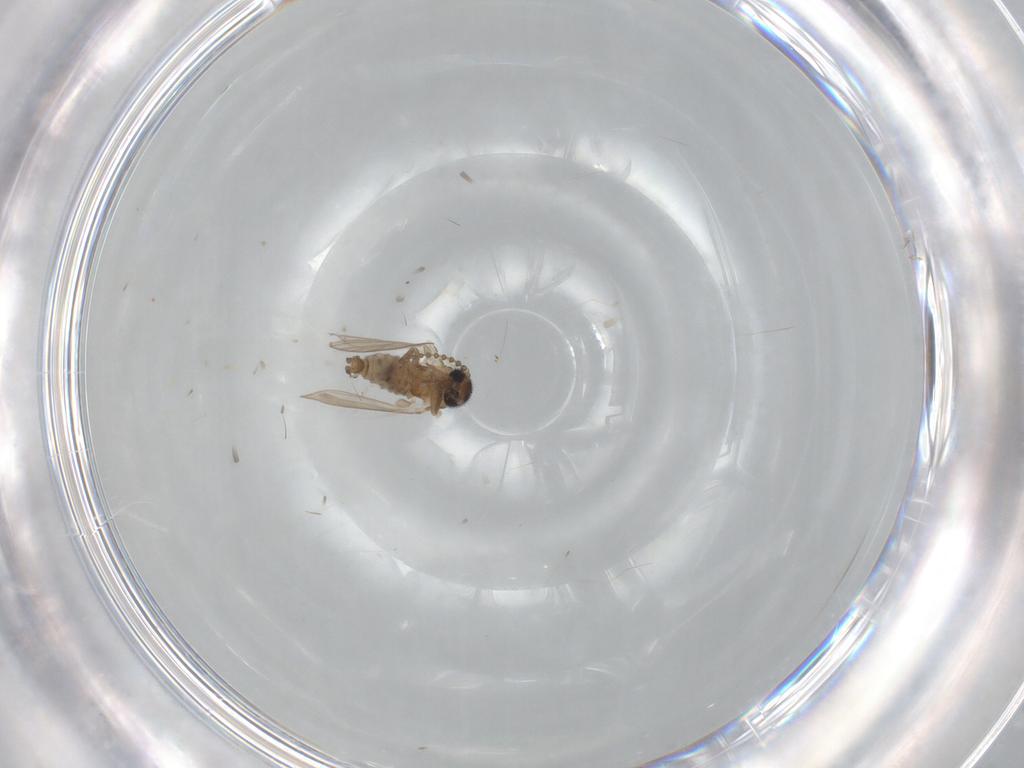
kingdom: Animalia
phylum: Arthropoda
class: Insecta
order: Diptera
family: Psychodidae
